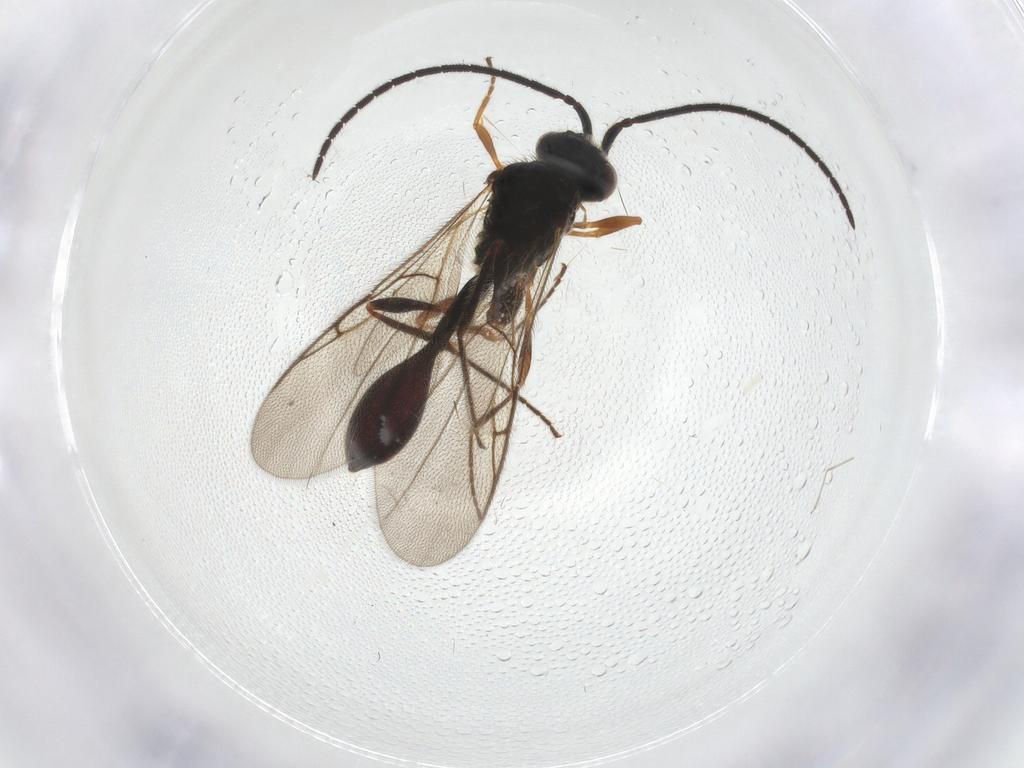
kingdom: Animalia
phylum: Arthropoda
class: Insecta
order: Hymenoptera
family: Diapriidae
